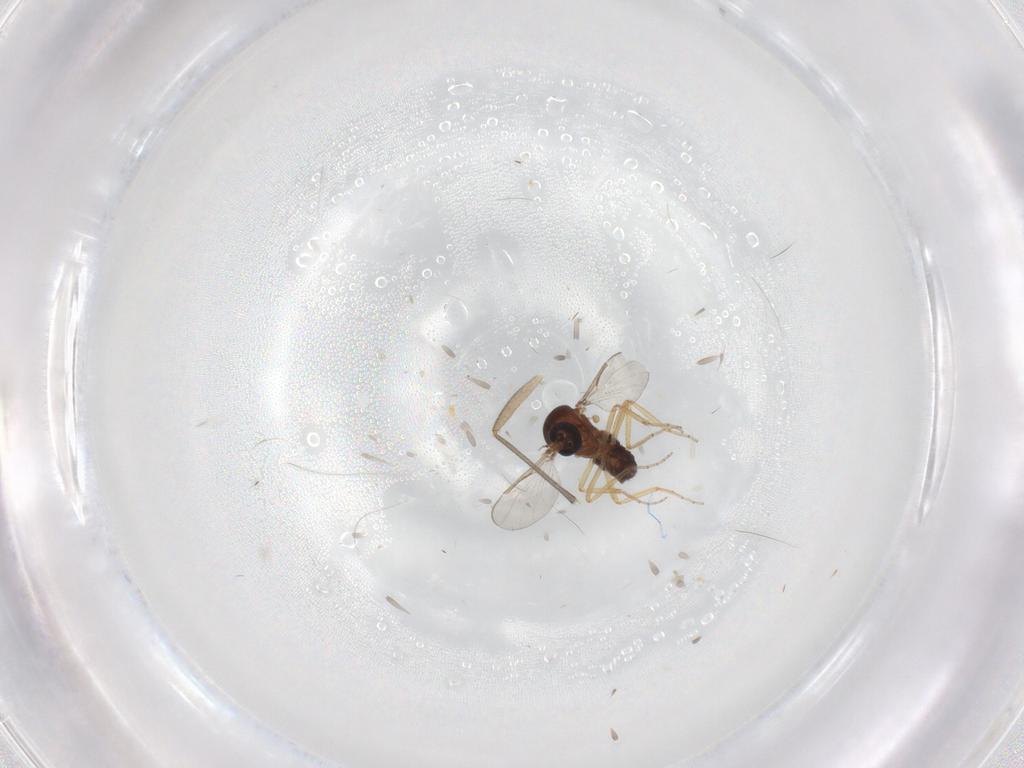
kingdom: Animalia
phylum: Arthropoda
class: Insecta
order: Diptera
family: Ceratopogonidae
